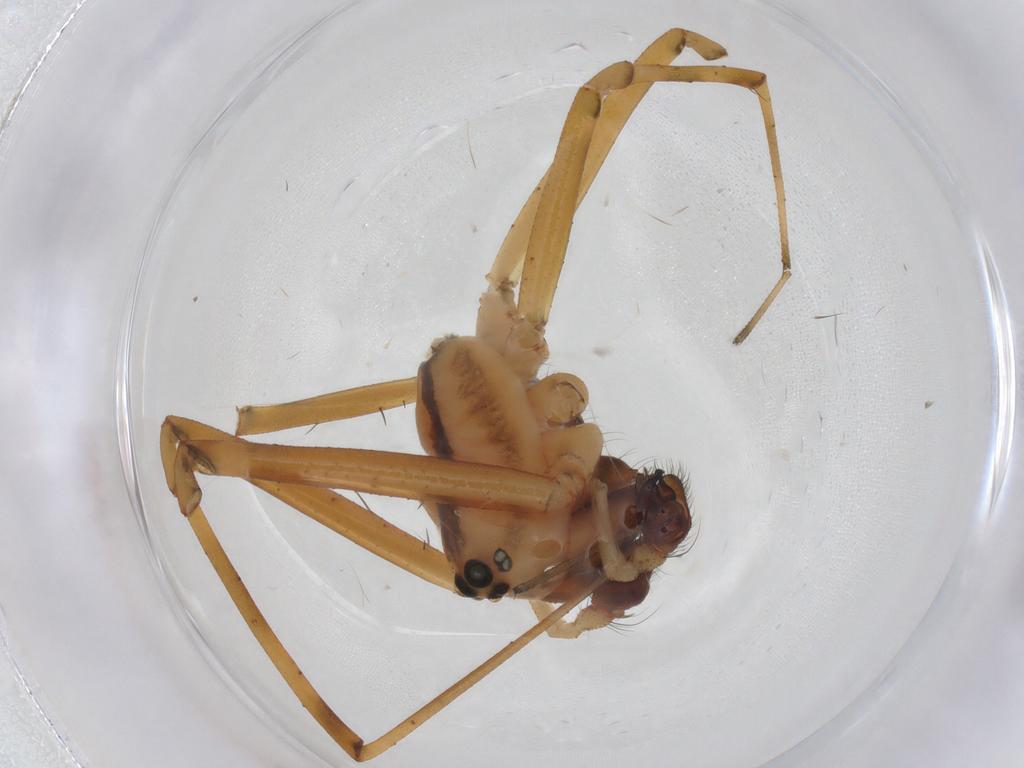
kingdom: Animalia
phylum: Arthropoda
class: Arachnida
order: Araneae
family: Linyphiidae
